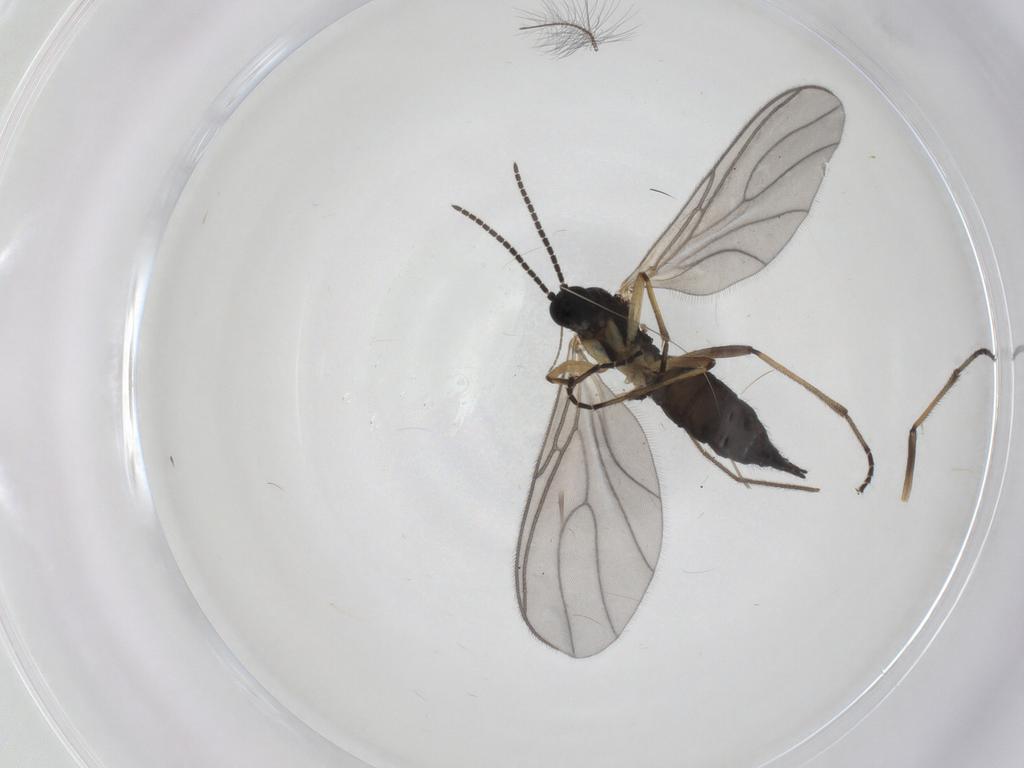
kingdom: Animalia
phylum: Arthropoda
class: Insecta
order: Diptera
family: Sciaridae
